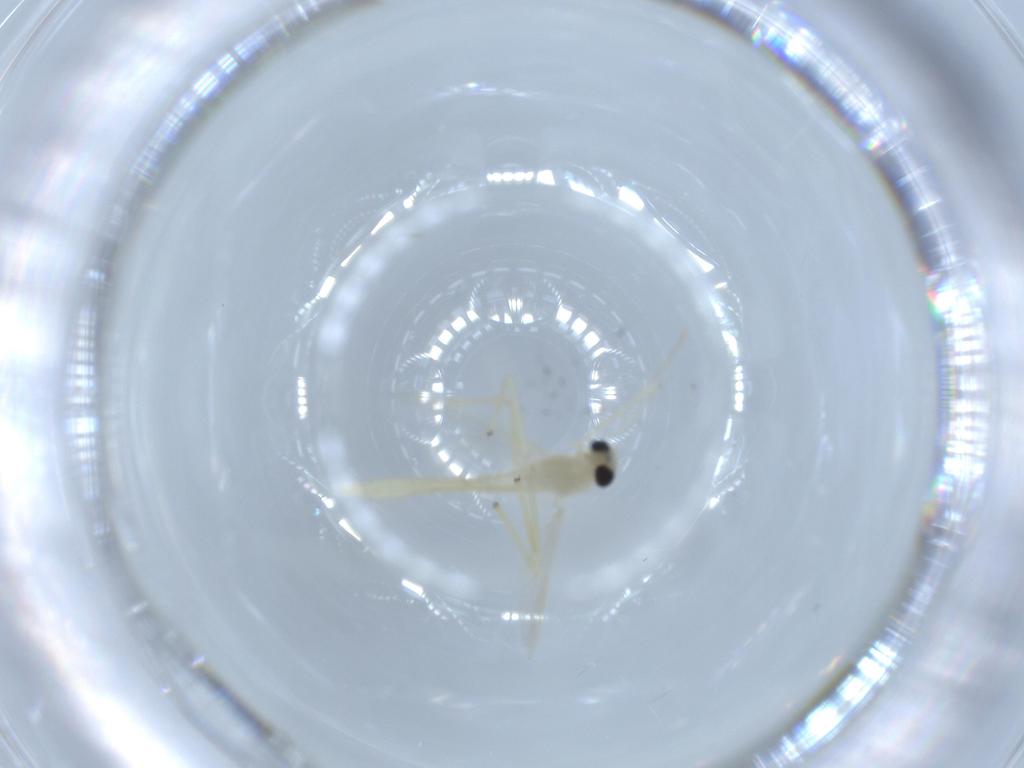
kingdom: Animalia
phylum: Arthropoda
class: Insecta
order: Diptera
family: Chironomidae
